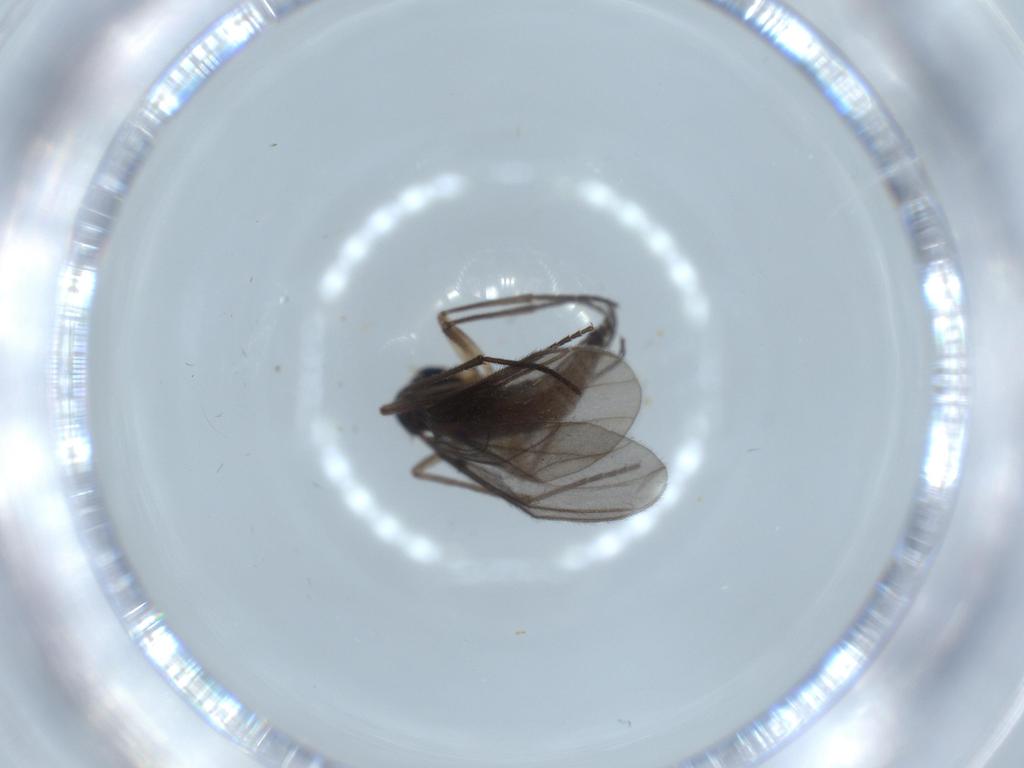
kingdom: Animalia
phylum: Arthropoda
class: Insecta
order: Diptera
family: Sciaridae
